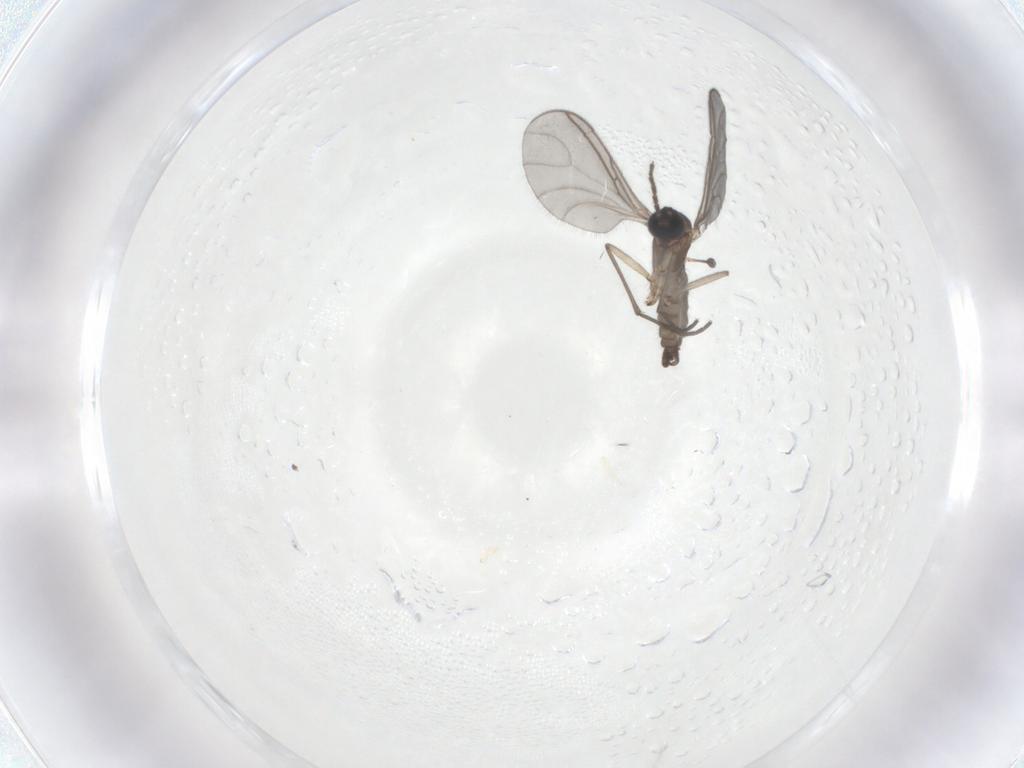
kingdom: Animalia
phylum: Arthropoda
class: Insecta
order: Diptera
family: Sciaridae
